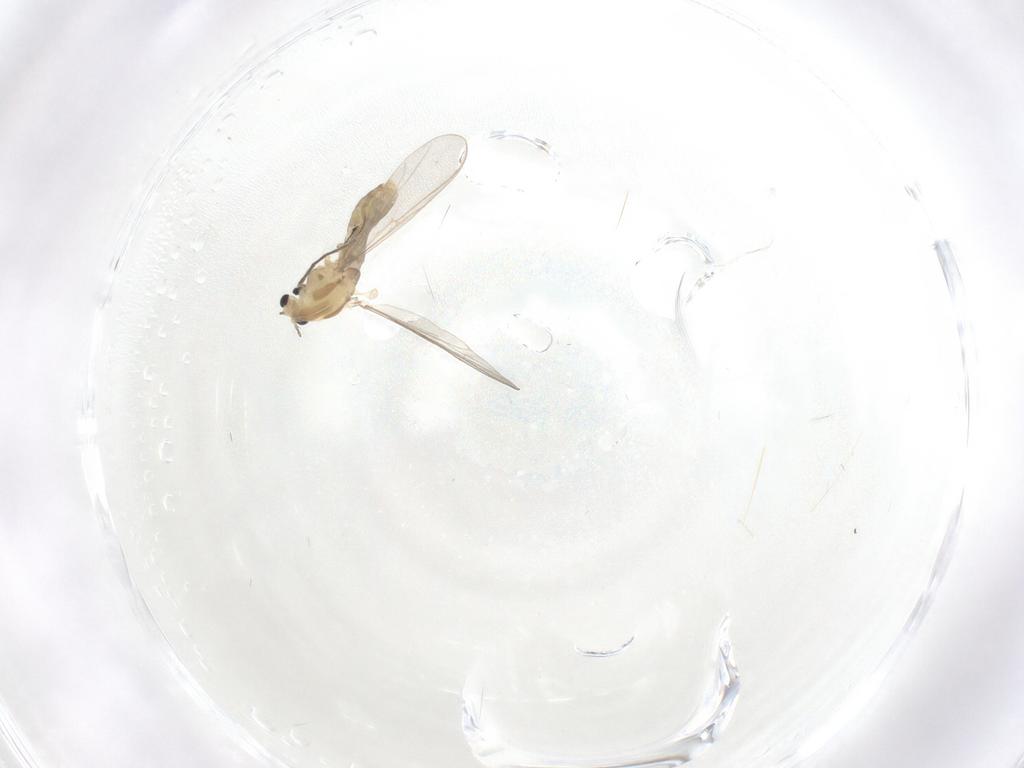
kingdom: Animalia
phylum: Arthropoda
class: Insecta
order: Diptera
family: Chironomidae
